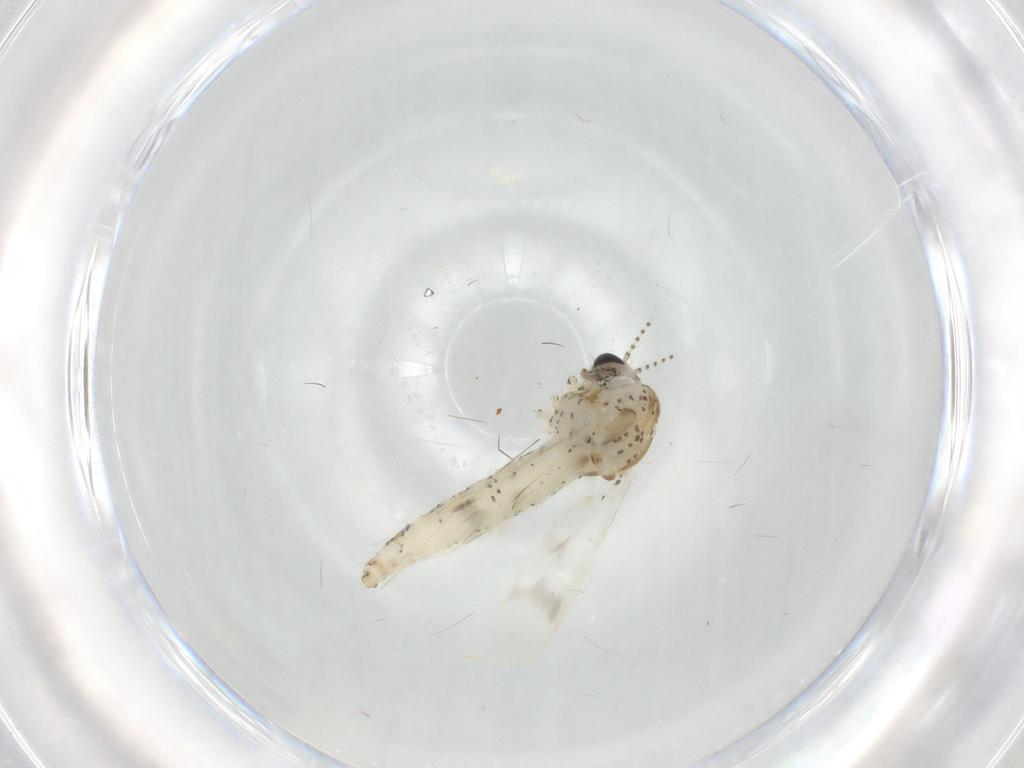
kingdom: Animalia
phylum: Arthropoda
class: Insecta
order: Diptera
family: Chaoboridae
